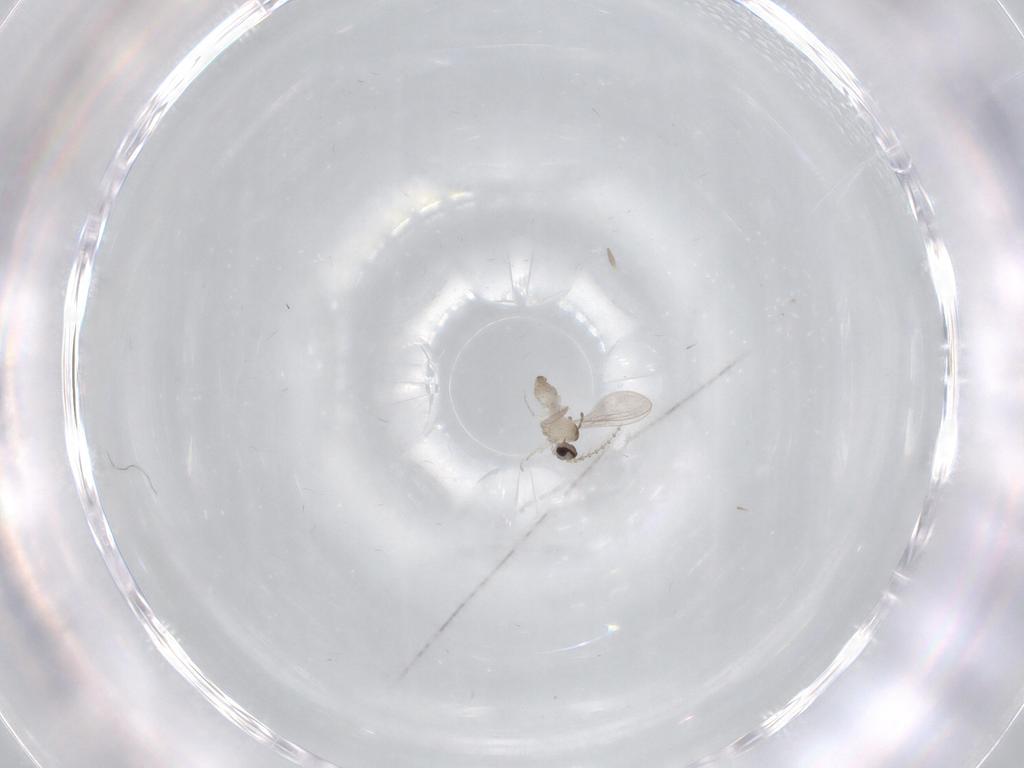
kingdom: Animalia
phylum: Arthropoda
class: Insecta
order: Diptera
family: Cecidomyiidae
